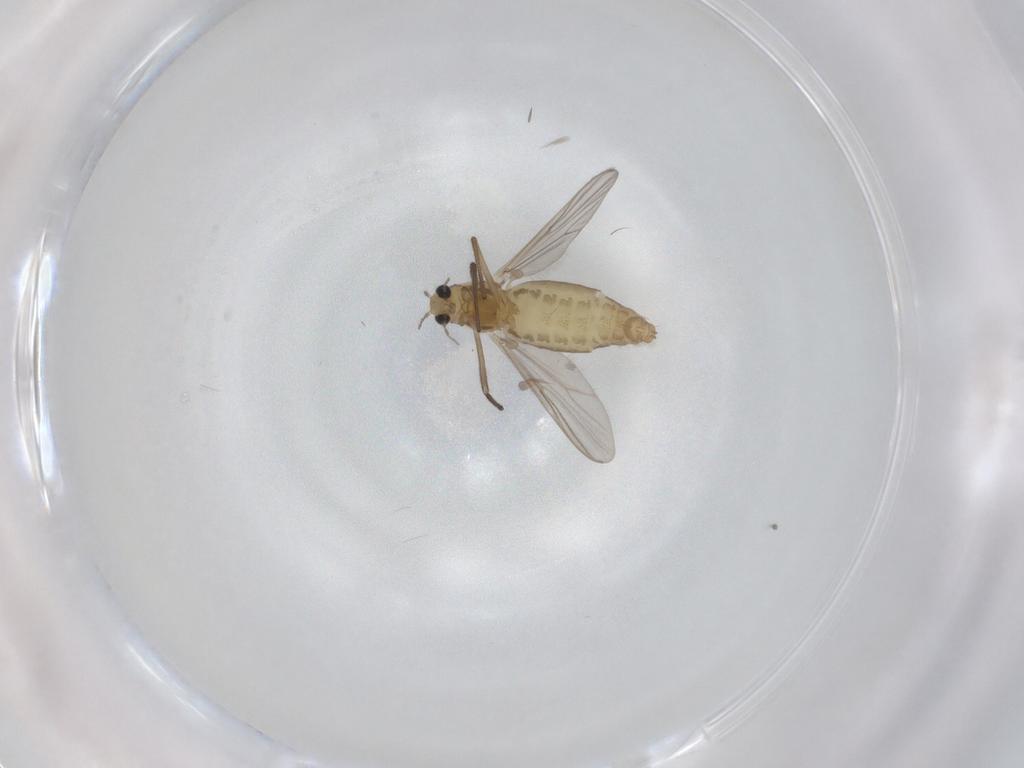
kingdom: Animalia
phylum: Arthropoda
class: Insecta
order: Diptera
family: Chironomidae
